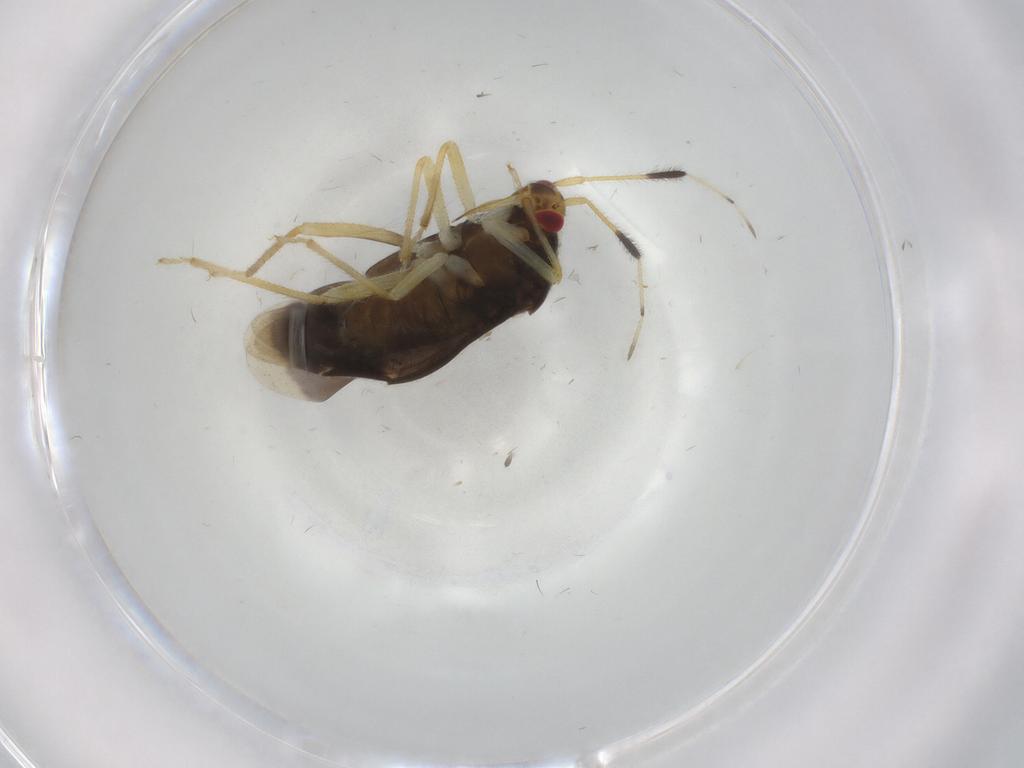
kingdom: Animalia
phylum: Arthropoda
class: Insecta
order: Hemiptera
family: Miridae
